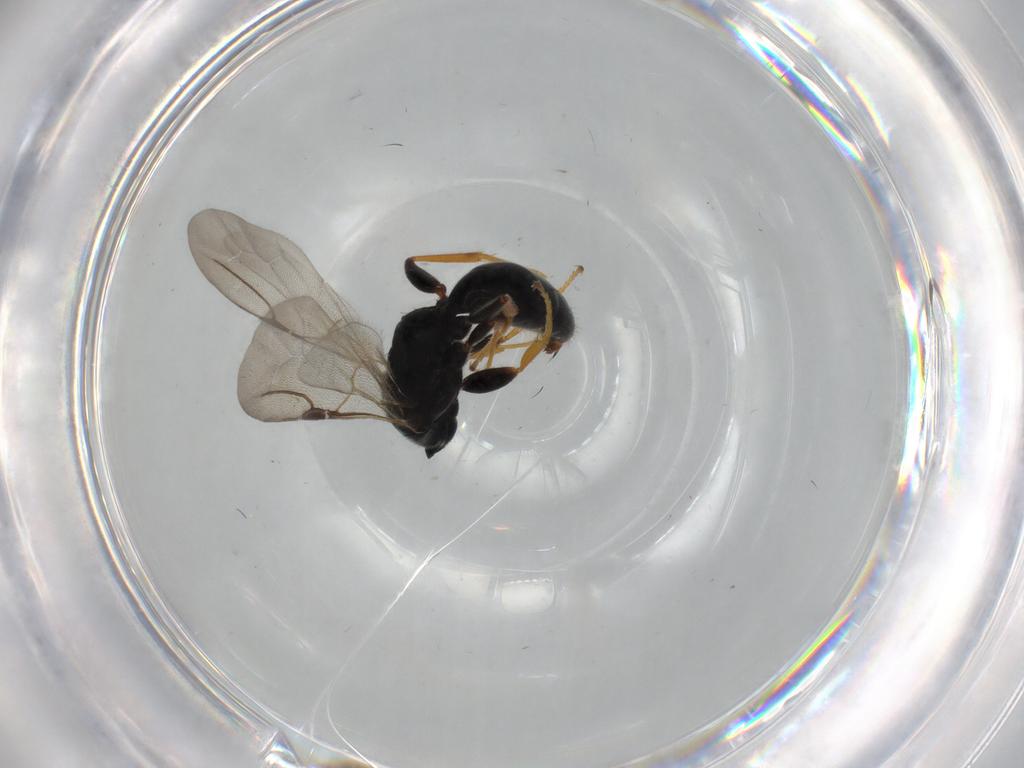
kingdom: Animalia
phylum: Arthropoda
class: Insecta
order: Hymenoptera
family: Bethylidae
